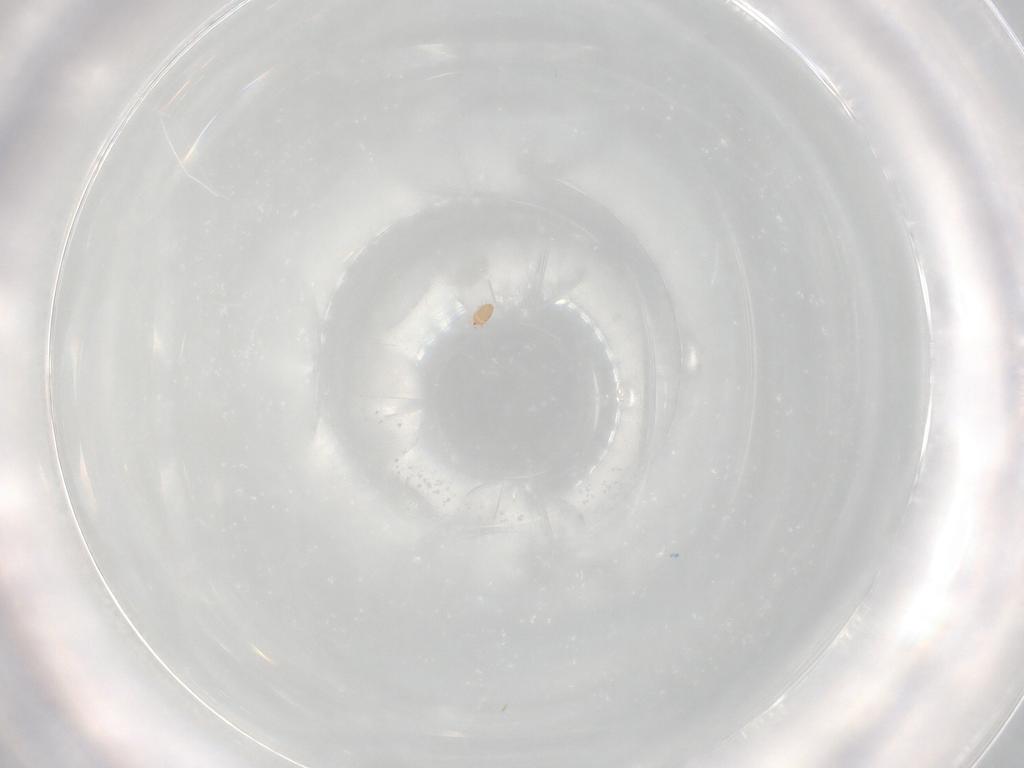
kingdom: Animalia
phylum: Arthropoda
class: Arachnida
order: Sarcoptiformes
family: Hemisarcoptidae
